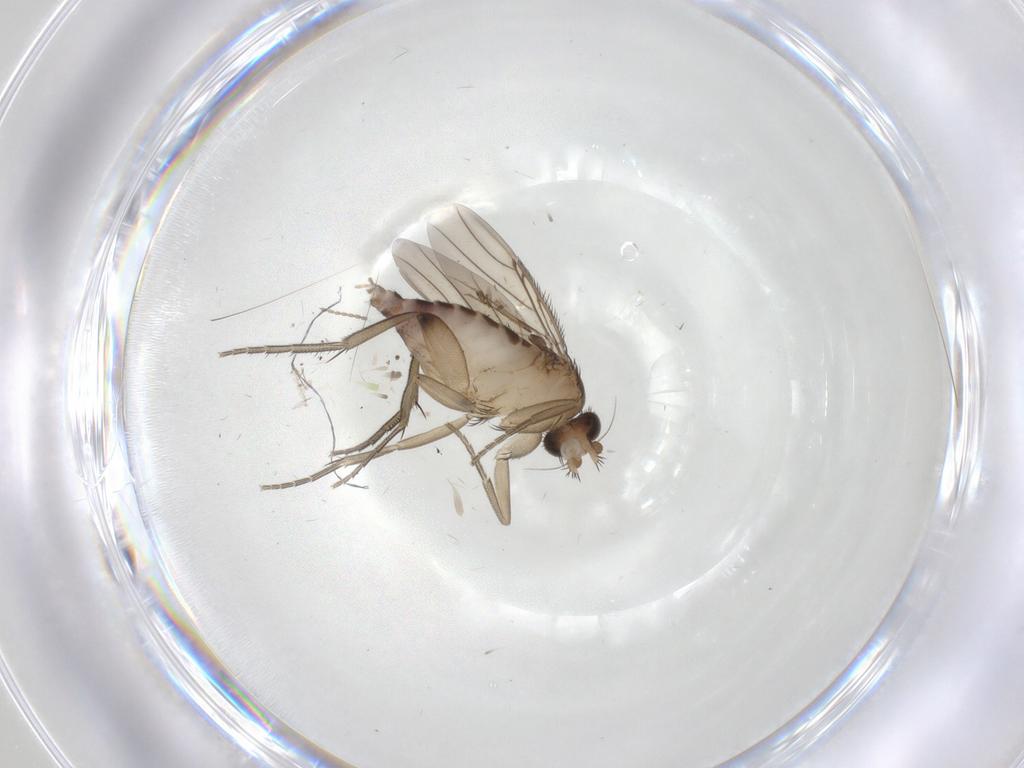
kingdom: Animalia
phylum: Arthropoda
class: Insecta
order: Diptera
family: Phoridae
